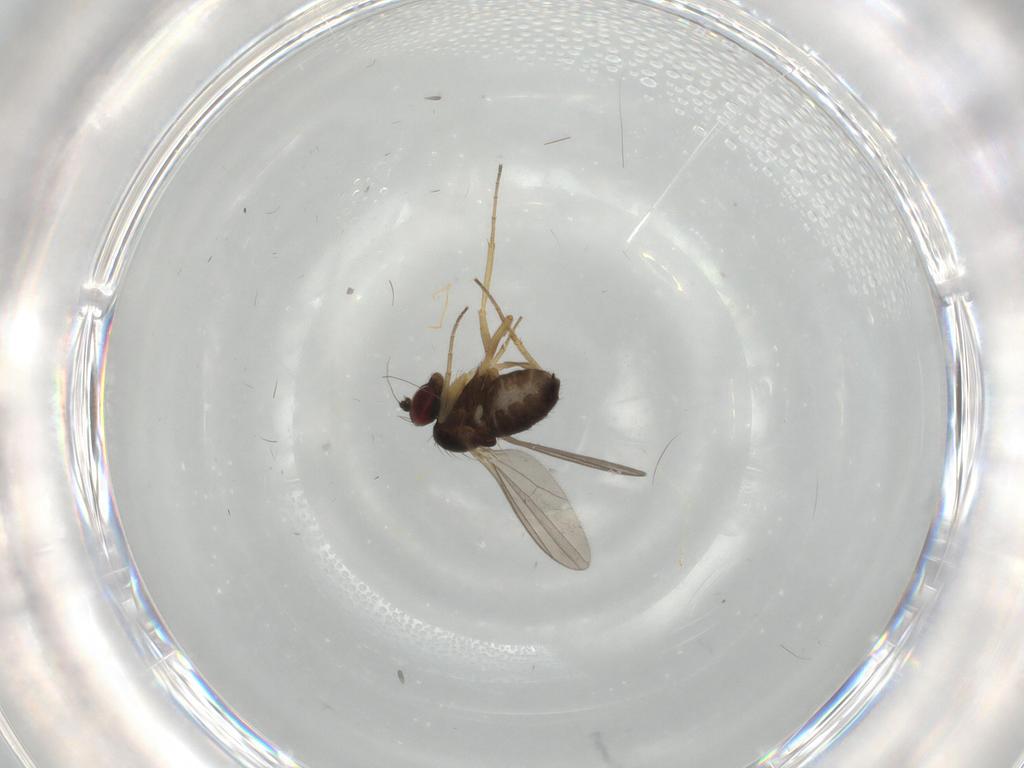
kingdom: Animalia
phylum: Arthropoda
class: Insecta
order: Diptera
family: Dolichopodidae
